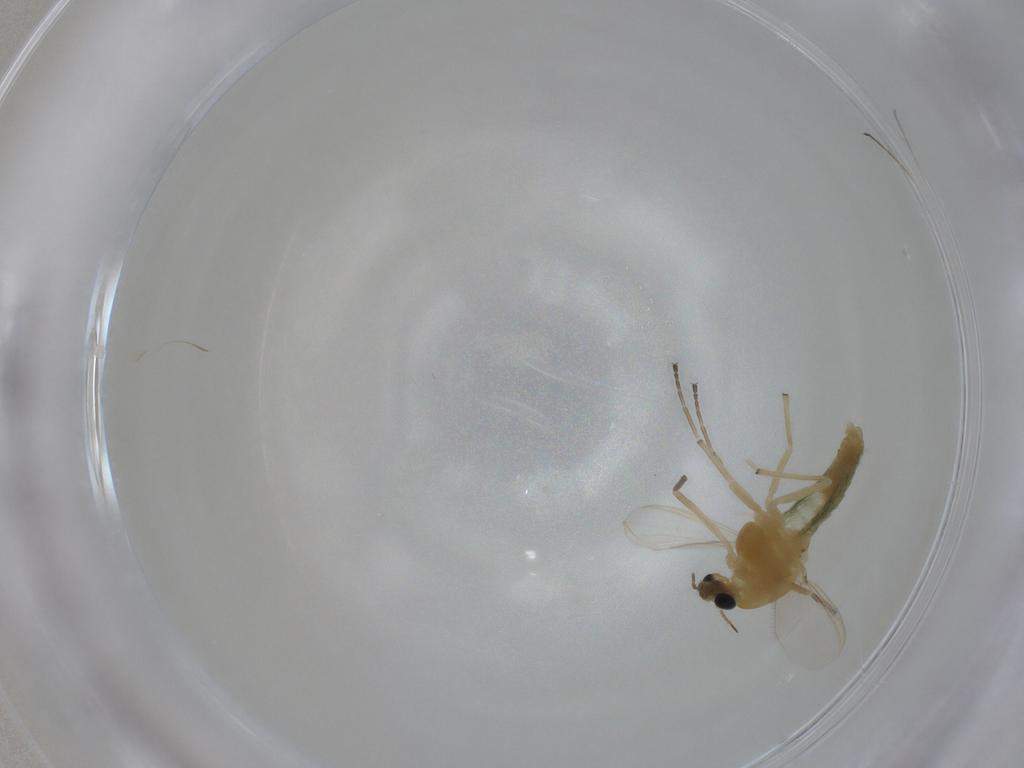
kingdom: Animalia
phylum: Arthropoda
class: Insecta
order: Diptera
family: Chironomidae
